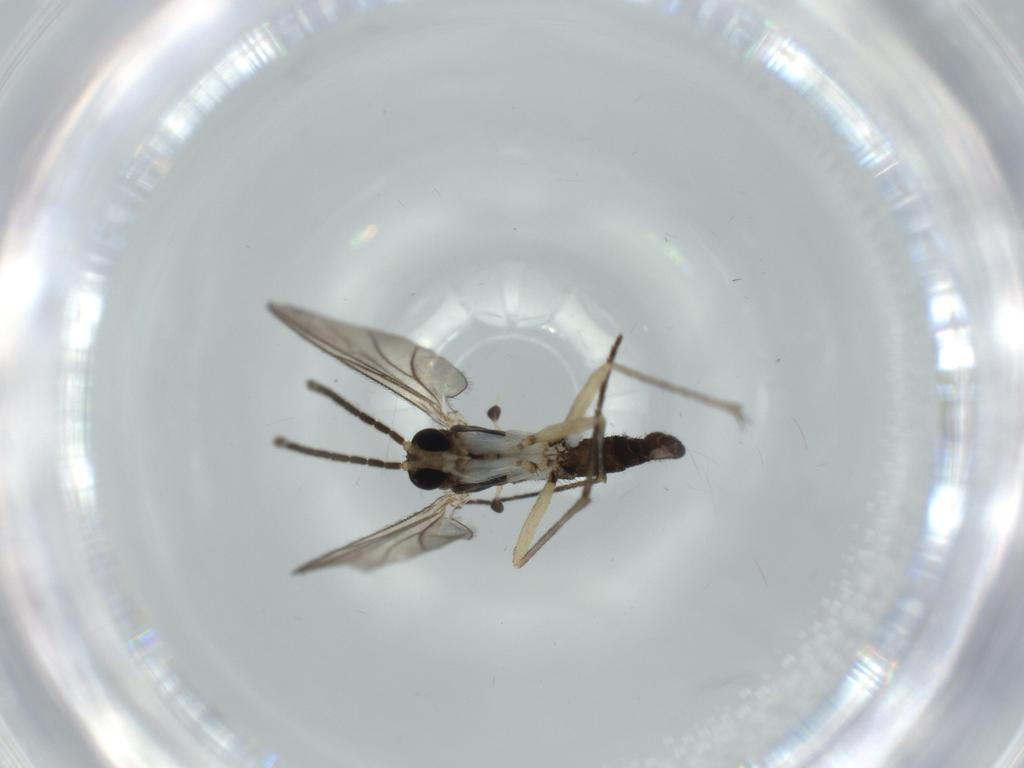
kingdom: Animalia
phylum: Arthropoda
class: Insecta
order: Diptera
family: Sciaridae
